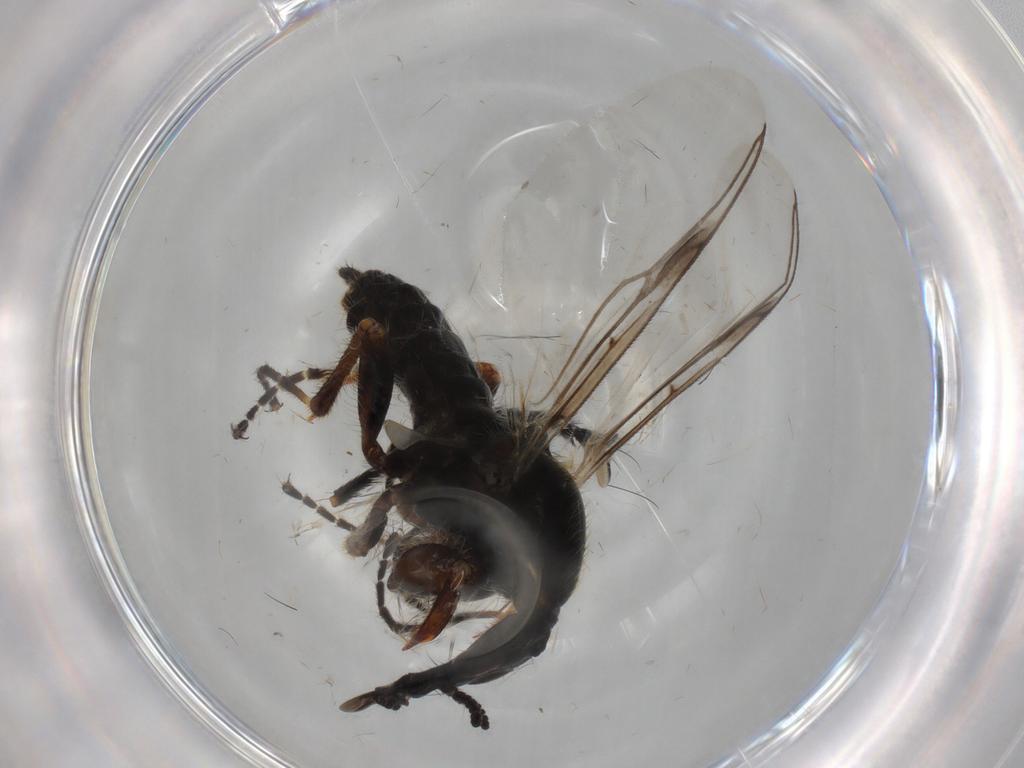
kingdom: Animalia
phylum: Arthropoda
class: Insecta
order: Diptera
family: Bibionidae
